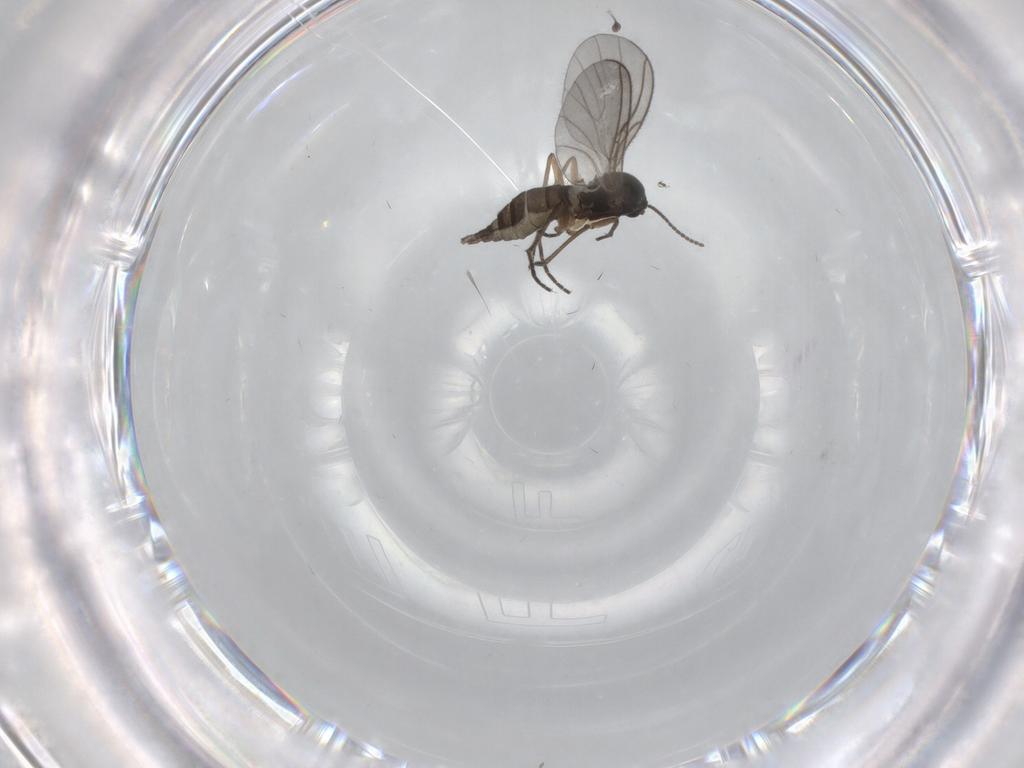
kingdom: Animalia
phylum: Arthropoda
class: Insecta
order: Diptera
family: Sciaridae
